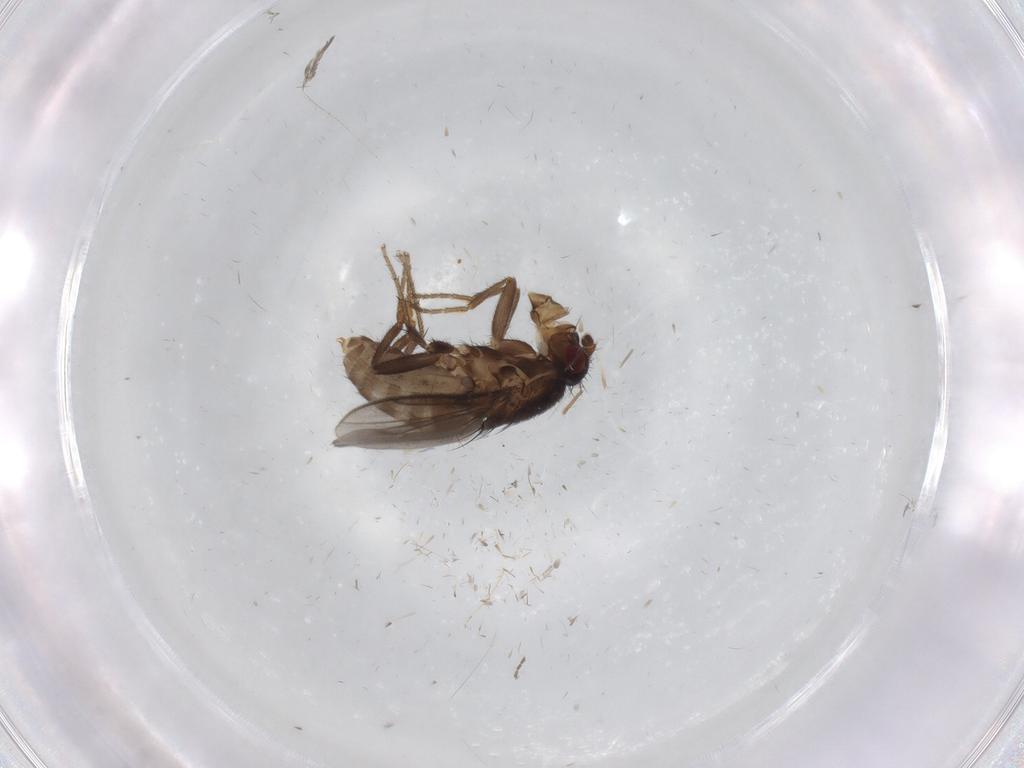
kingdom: Animalia
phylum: Arthropoda
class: Insecta
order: Diptera
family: Sphaeroceridae
